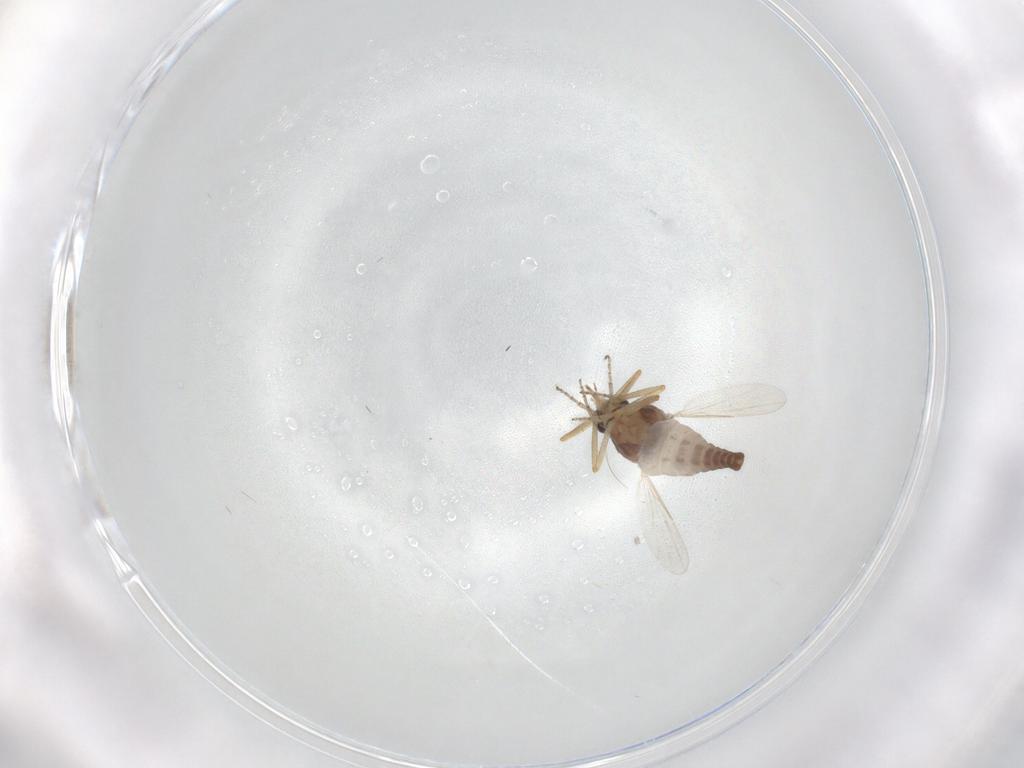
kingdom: Animalia
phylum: Arthropoda
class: Insecta
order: Diptera
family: Ceratopogonidae
